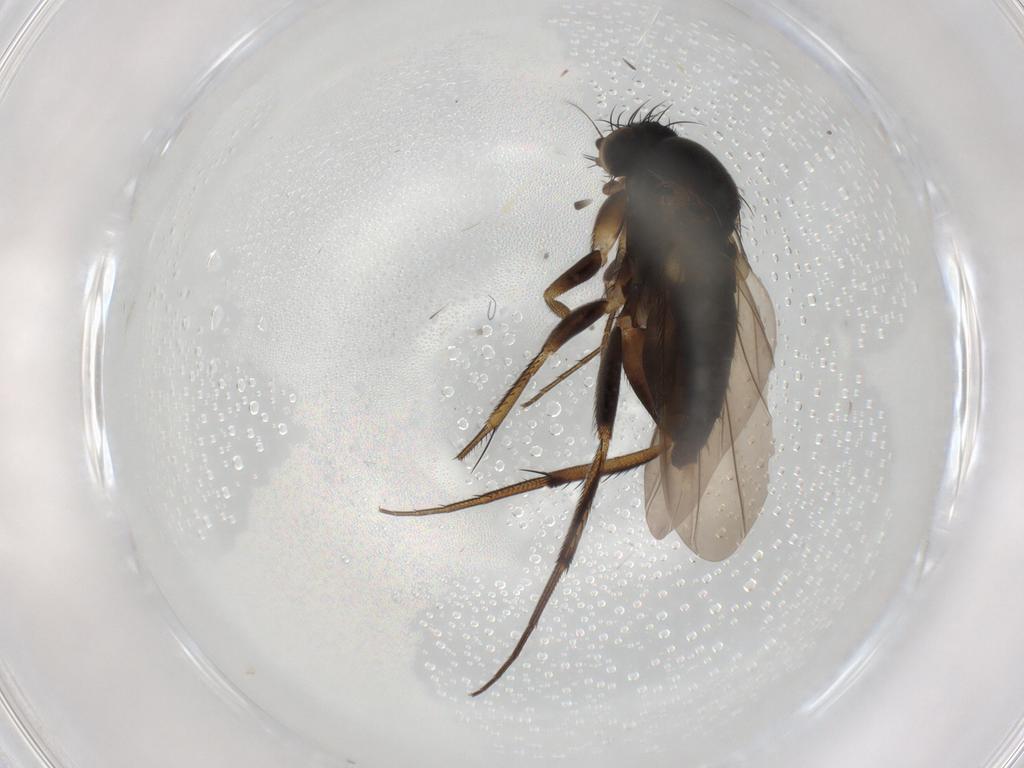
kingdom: Animalia
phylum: Arthropoda
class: Insecta
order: Diptera
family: Phoridae
